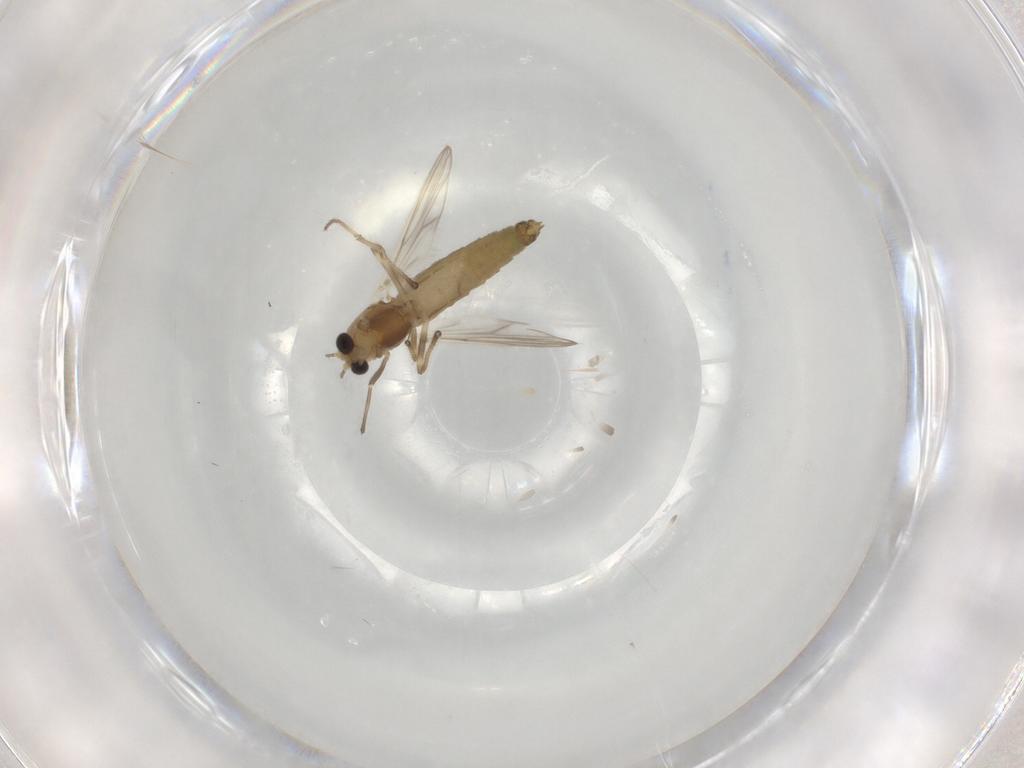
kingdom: Animalia
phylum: Arthropoda
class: Insecta
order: Diptera
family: Chironomidae
